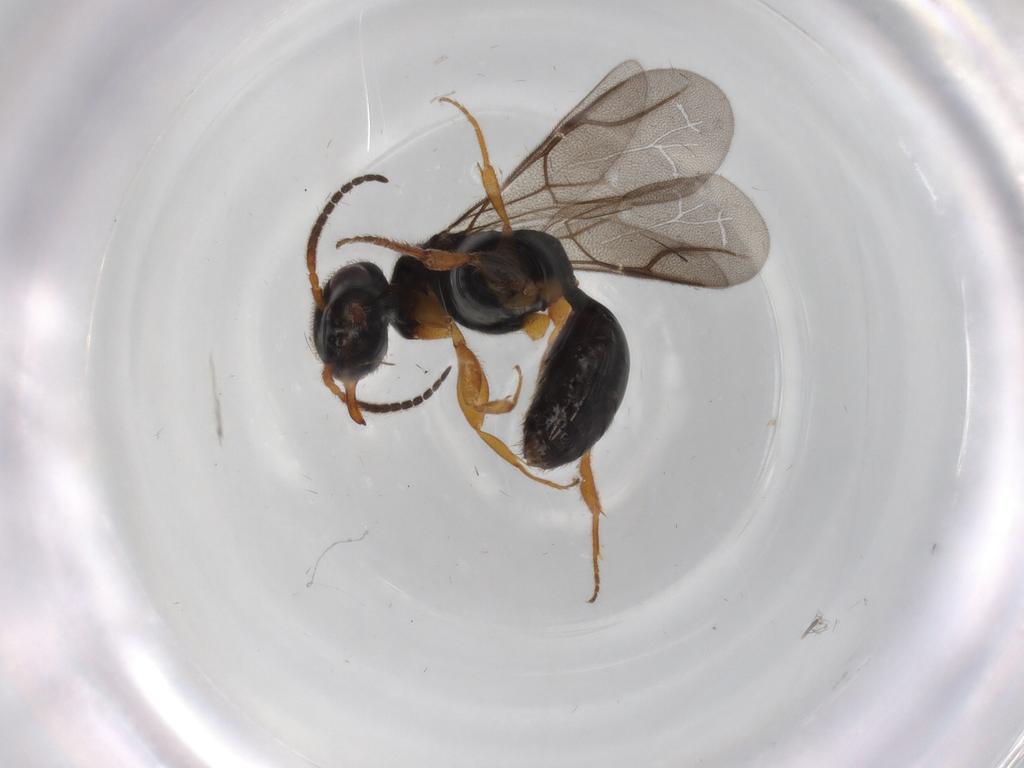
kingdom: Animalia
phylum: Arthropoda
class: Insecta
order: Hymenoptera
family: Bethylidae
